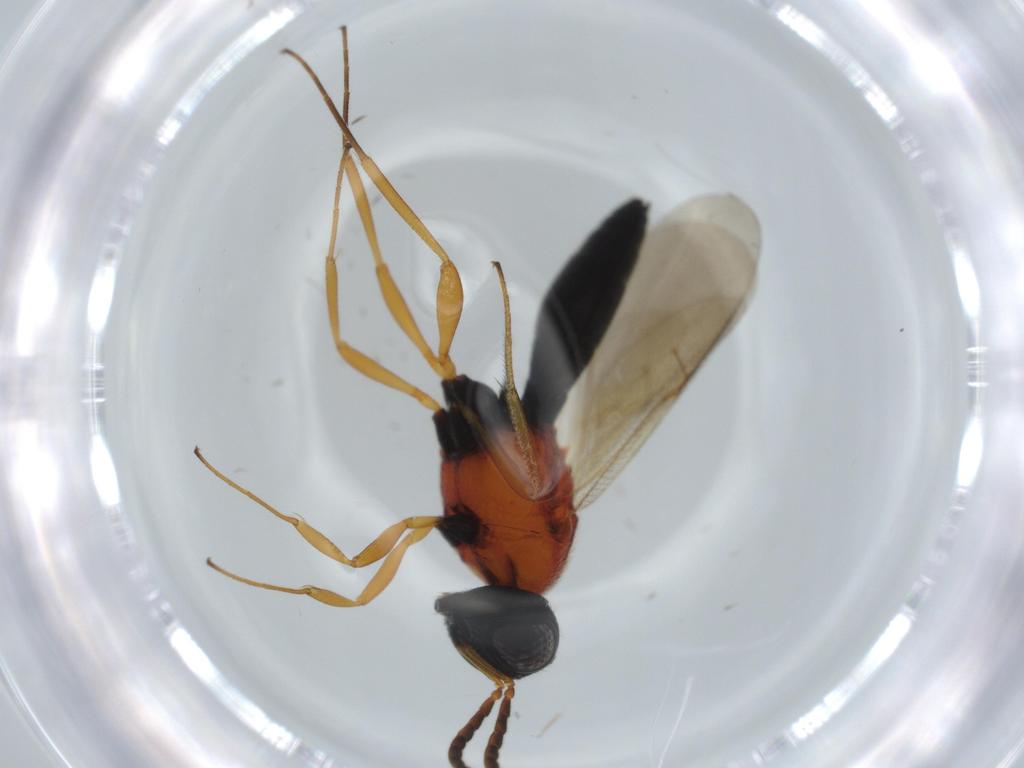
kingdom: Animalia
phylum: Arthropoda
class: Insecta
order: Hymenoptera
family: Scelionidae
